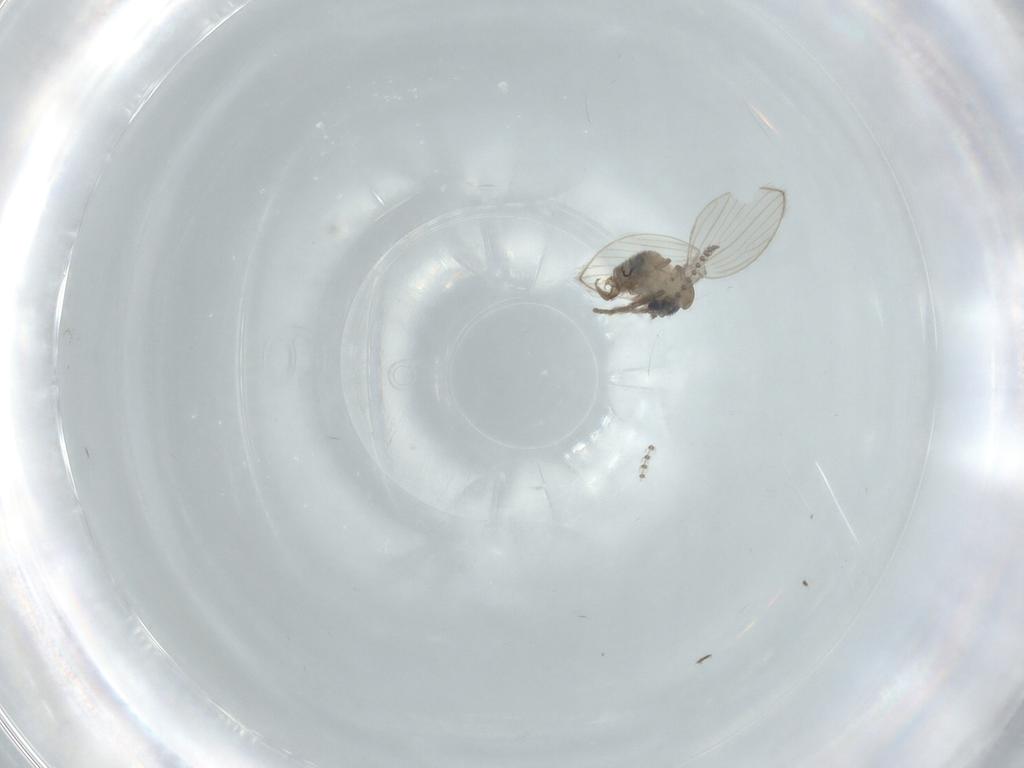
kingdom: Animalia
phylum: Arthropoda
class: Insecta
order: Diptera
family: Psychodidae
